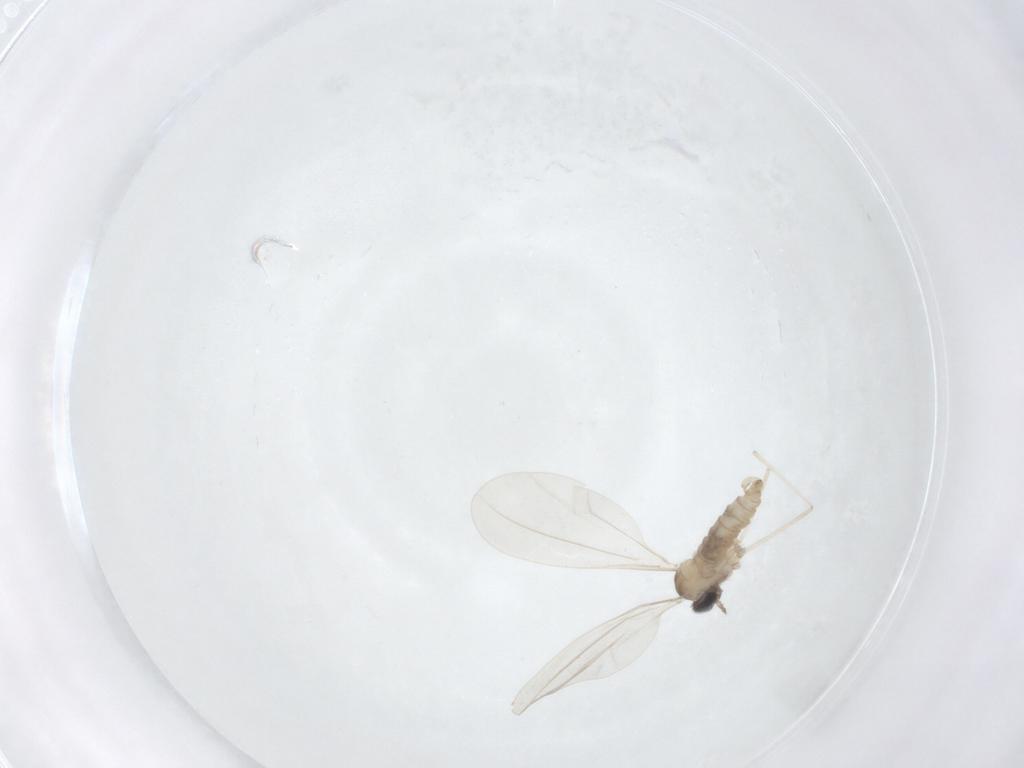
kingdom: Animalia
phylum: Arthropoda
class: Insecta
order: Diptera
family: Cecidomyiidae
